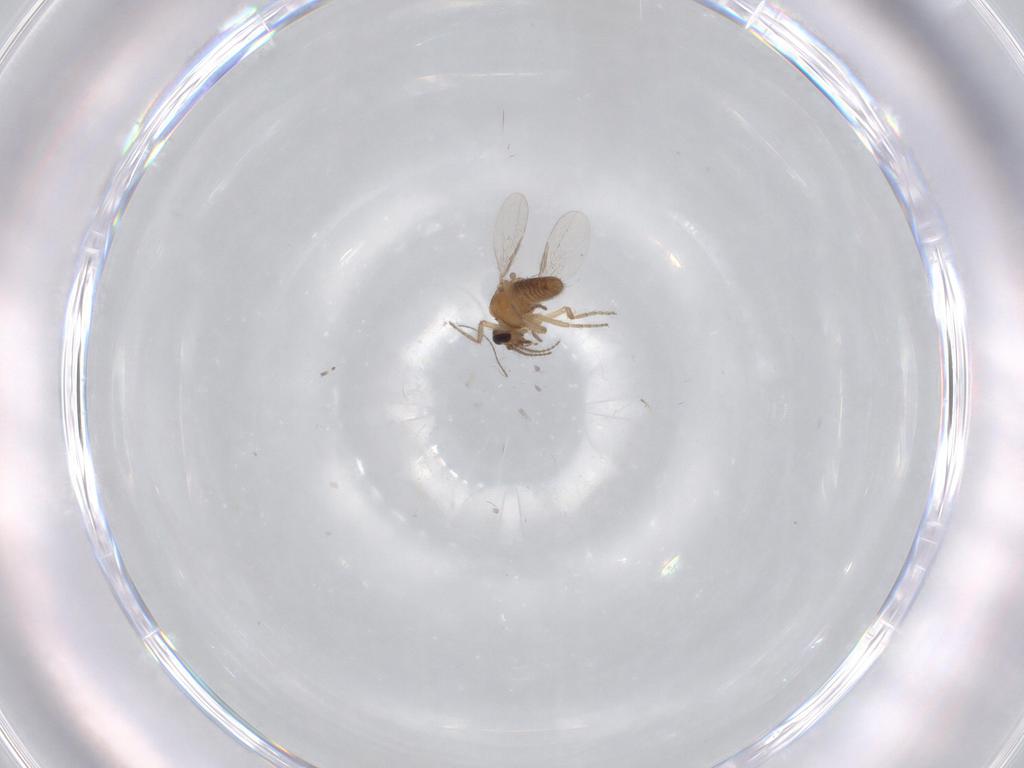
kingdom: Animalia
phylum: Arthropoda
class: Insecta
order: Diptera
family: Ceratopogonidae
